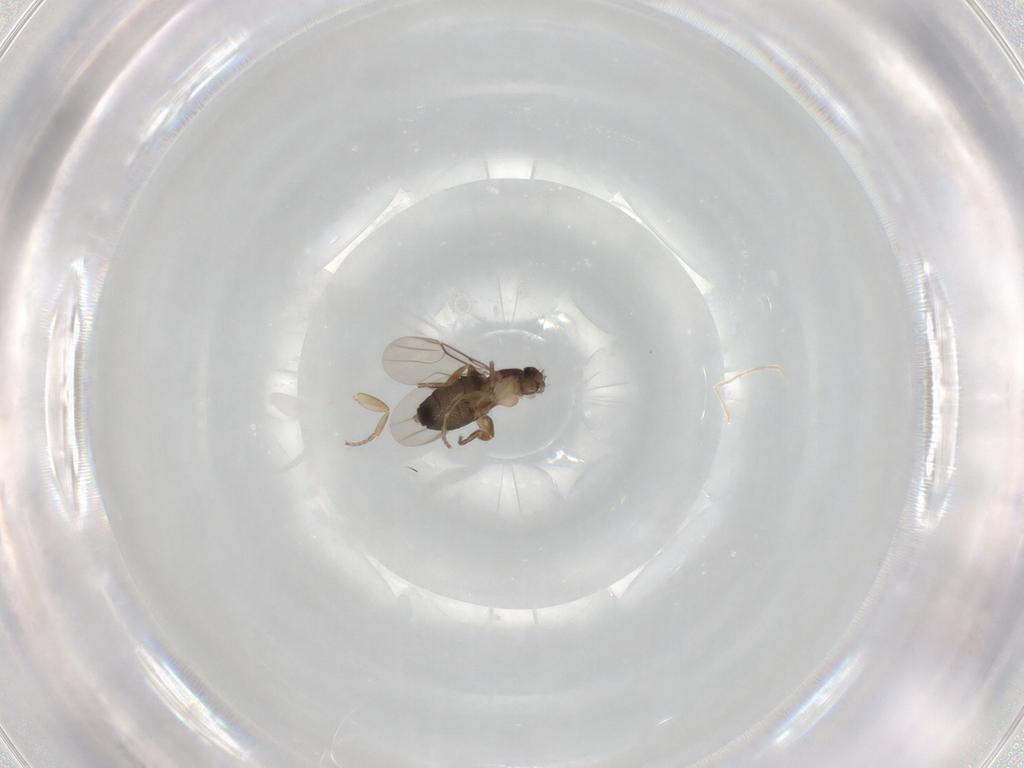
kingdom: Animalia
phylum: Arthropoda
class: Insecta
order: Diptera
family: Phoridae
